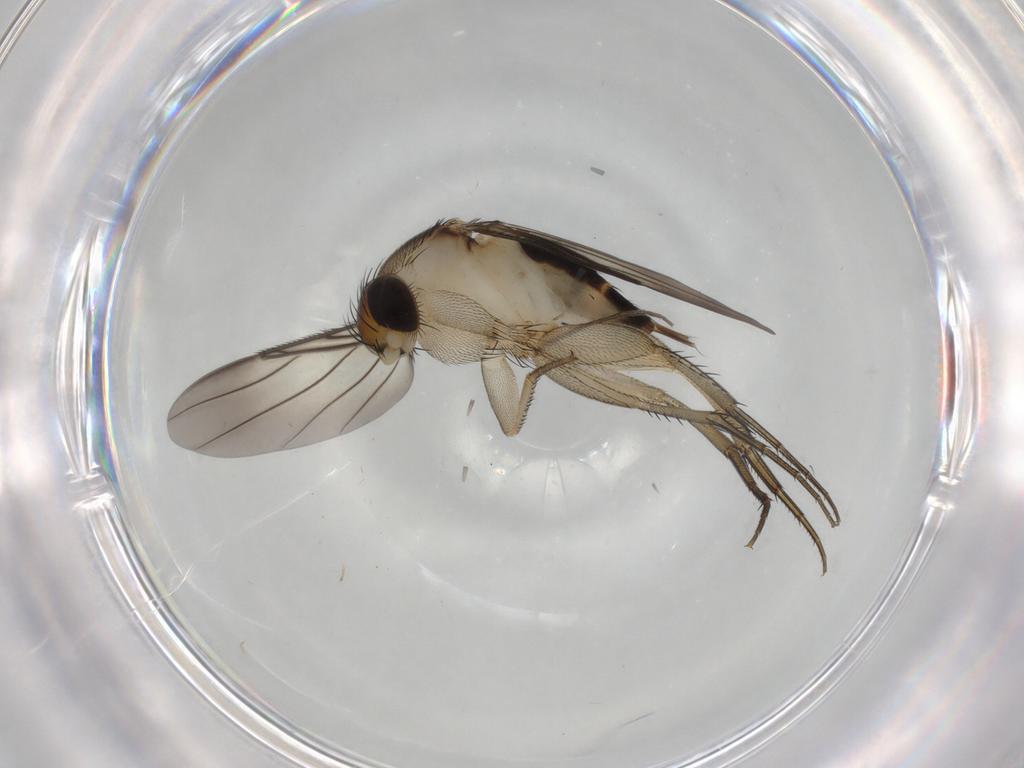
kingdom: Animalia
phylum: Arthropoda
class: Insecta
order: Diptera
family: Phoridae
